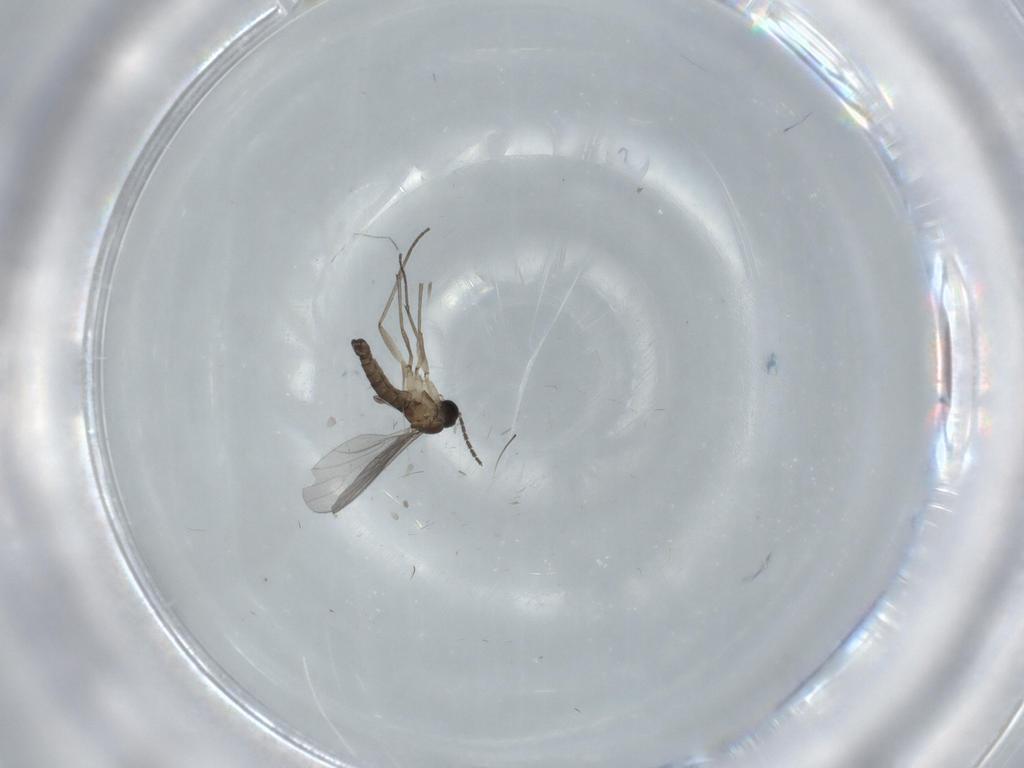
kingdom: Animalia
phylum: Arthropoda
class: Insecta
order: Diptera
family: Sciaridae
